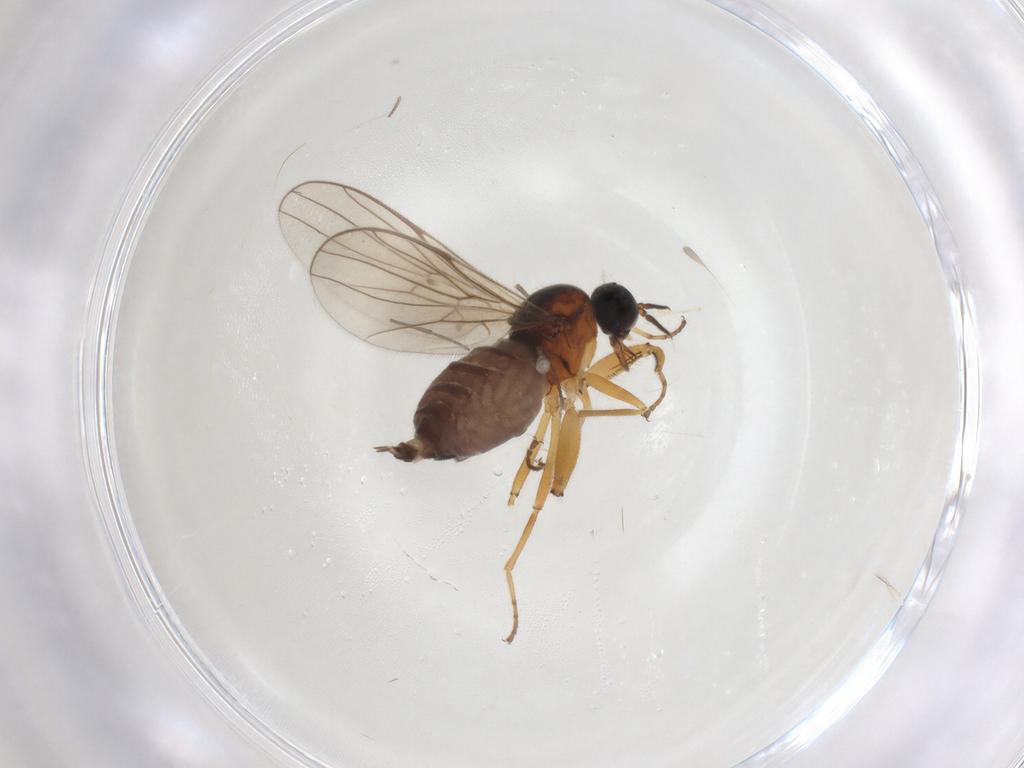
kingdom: Animalia
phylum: Arthropoda
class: Insecta
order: Diptera
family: Hybotidae
